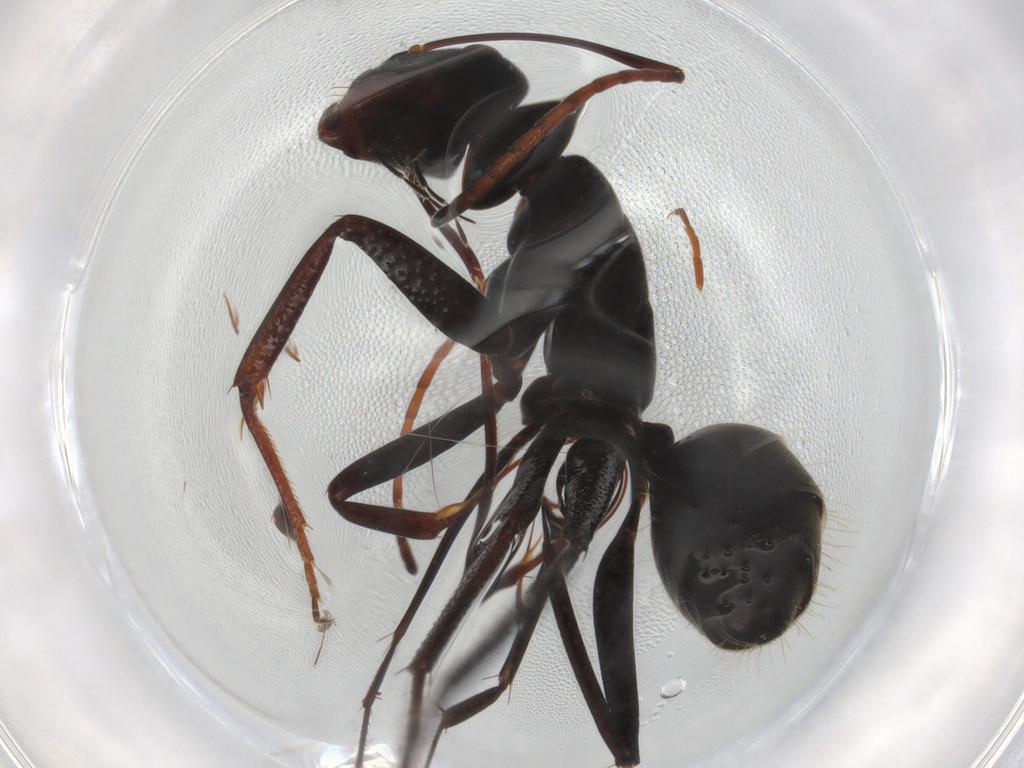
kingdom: Animalia
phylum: Arthropoda
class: Insecta
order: Hymenoptera
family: Formicidae
